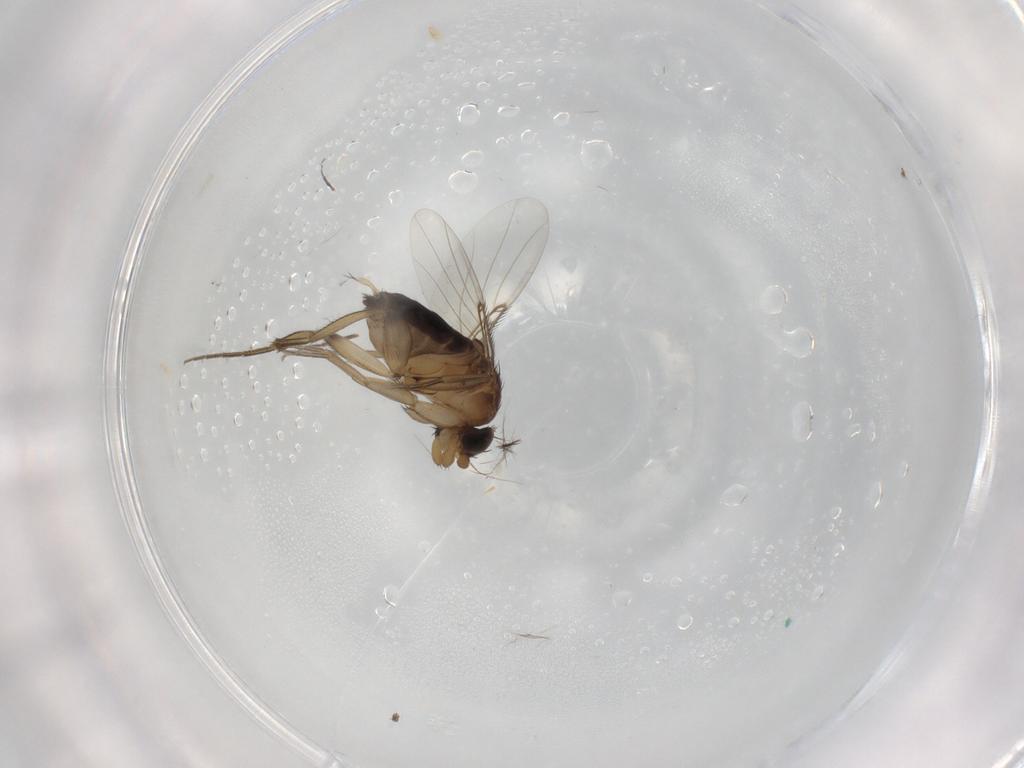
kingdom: Animalia
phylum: Arthropoda
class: Insecta
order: Diptera
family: Chironomidae
